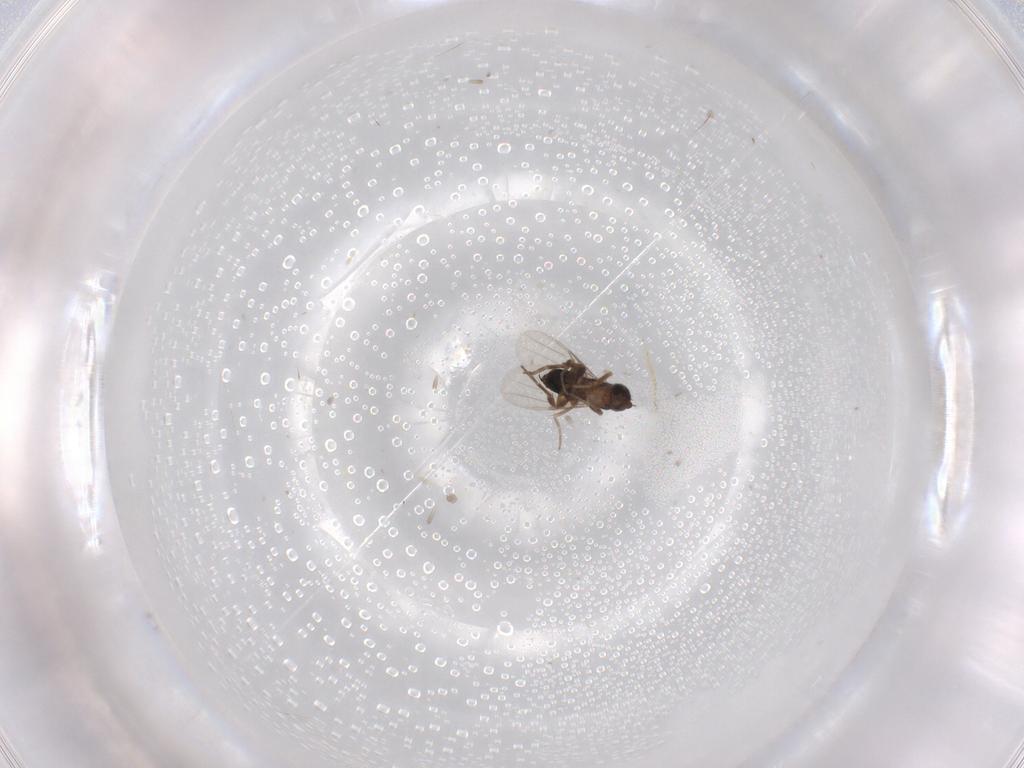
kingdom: Animalia
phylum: Arthropoda
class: Insecta
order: Diptera
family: Phoridae
